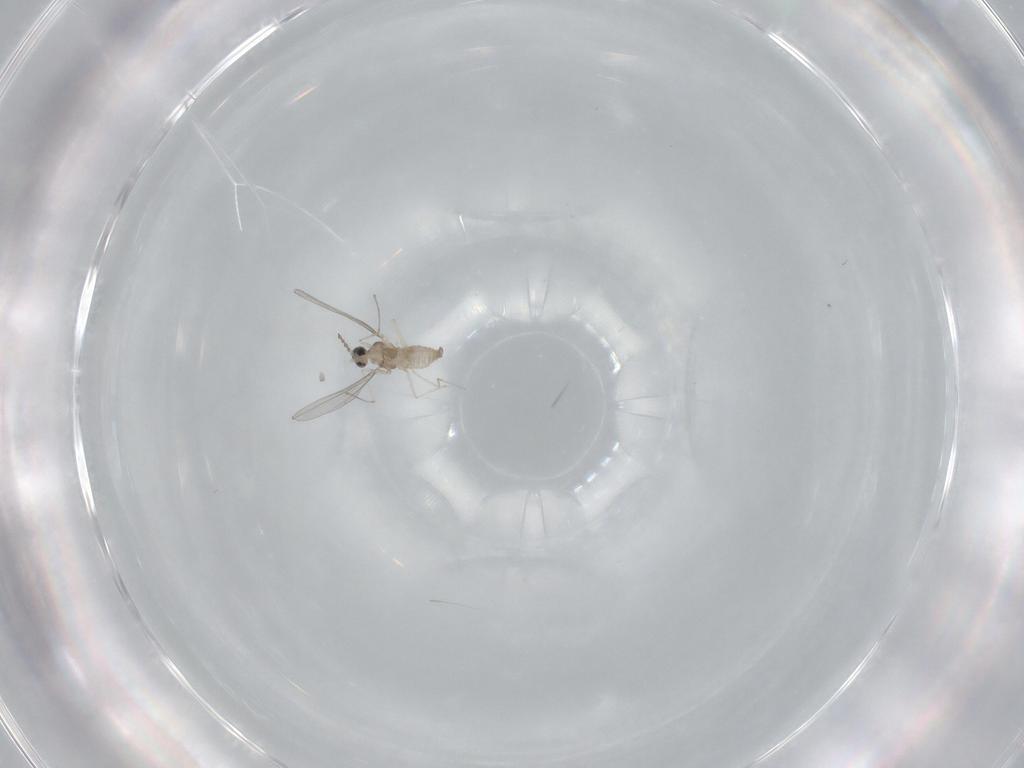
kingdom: Animalia
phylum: Arthropoda
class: Insecta
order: Diptera
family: Cecidomyiidae
